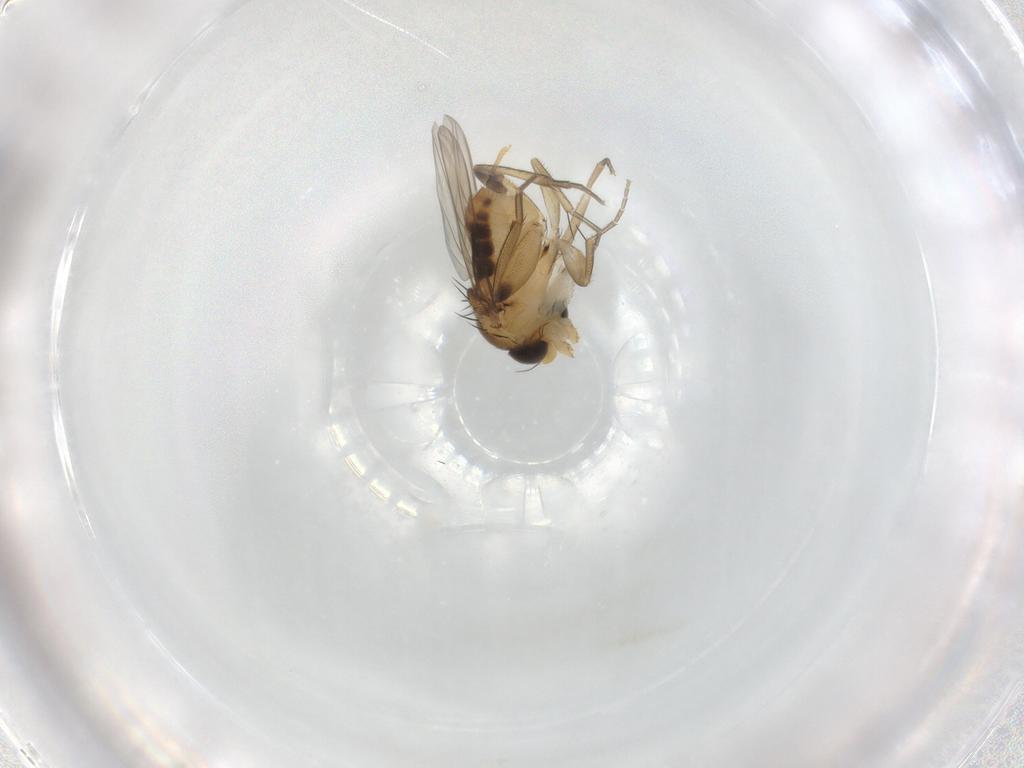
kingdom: Animalia
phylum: Arthropoda
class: Insecta
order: Diptera
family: Phoridae
